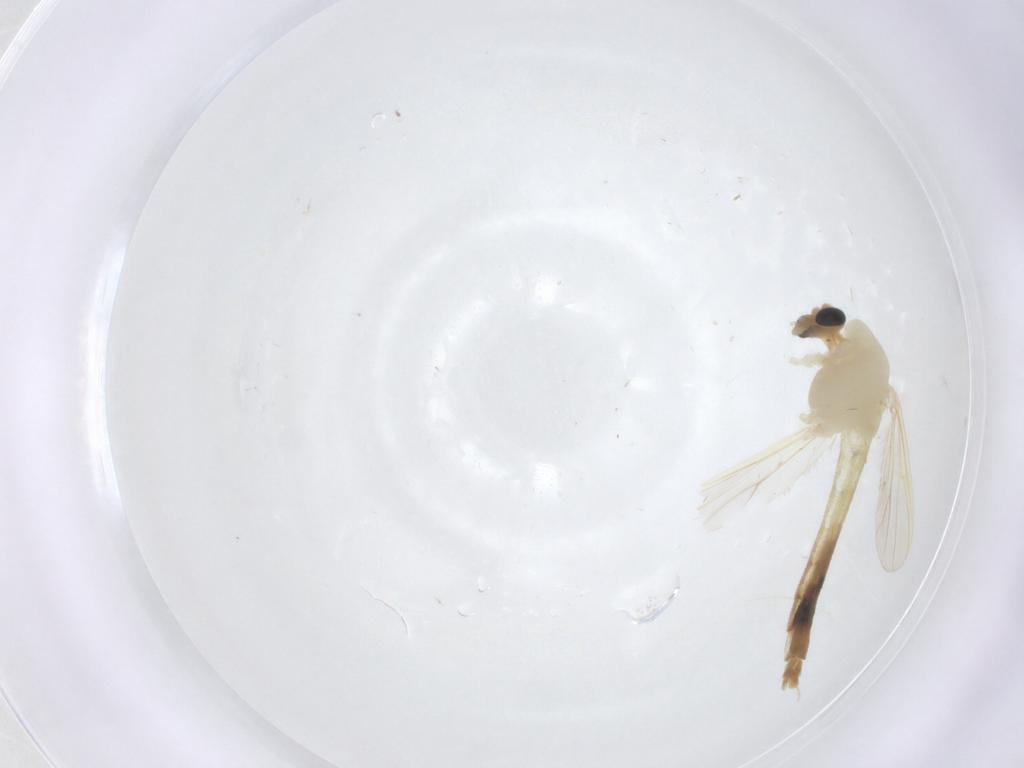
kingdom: Animalia
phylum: Arthropoda
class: Insecta
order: Diptera
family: Chironomidae
